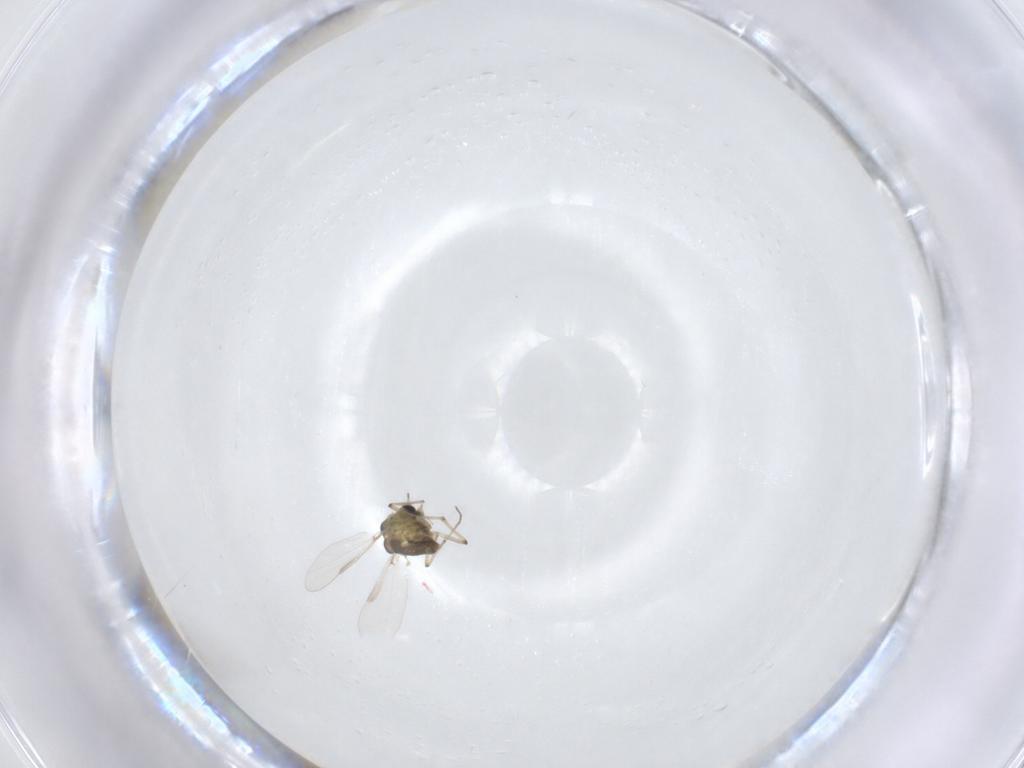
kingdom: Animalia
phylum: Arthropoda
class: Insecta
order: Diptera
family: Chironomidae
